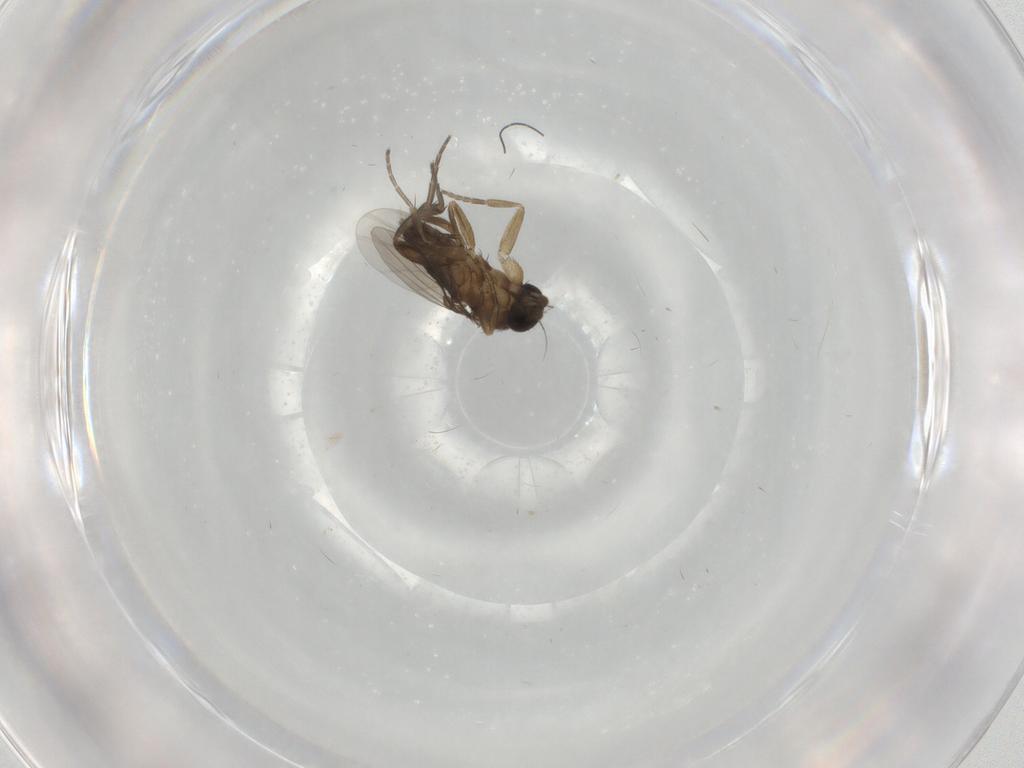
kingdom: Animalia
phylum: Arthropoda
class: Insecta
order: Diptera
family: Phoridae
